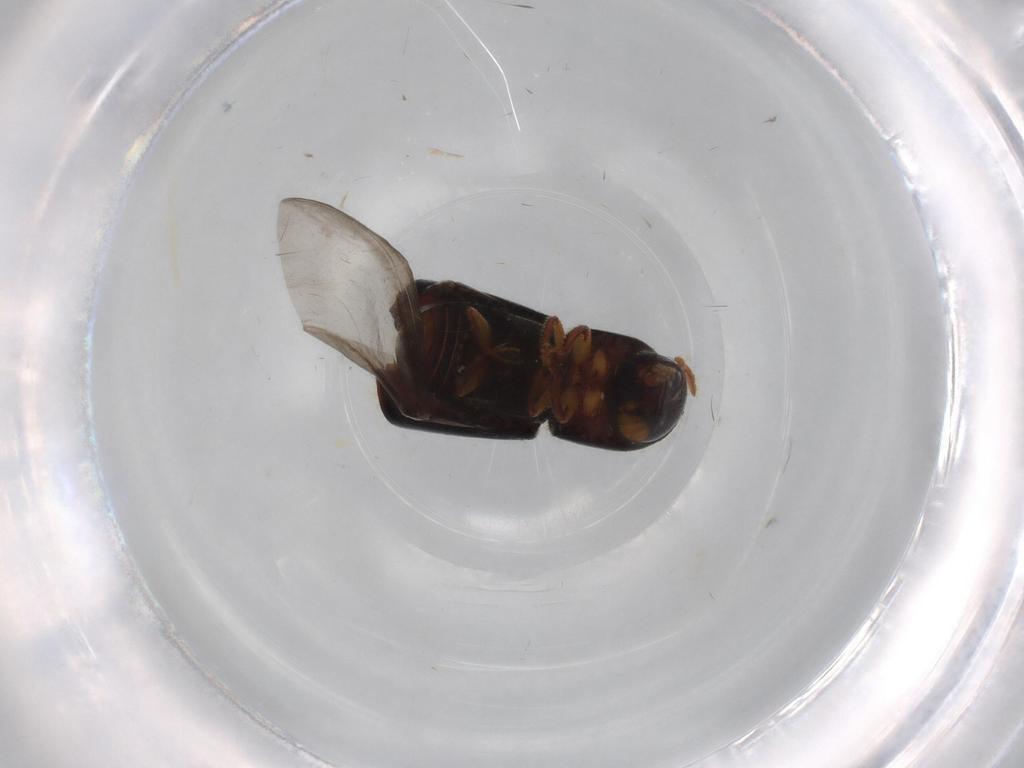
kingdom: Animalia
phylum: Arthropoda
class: Insecta
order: Coleoptera
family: Curculionidae
